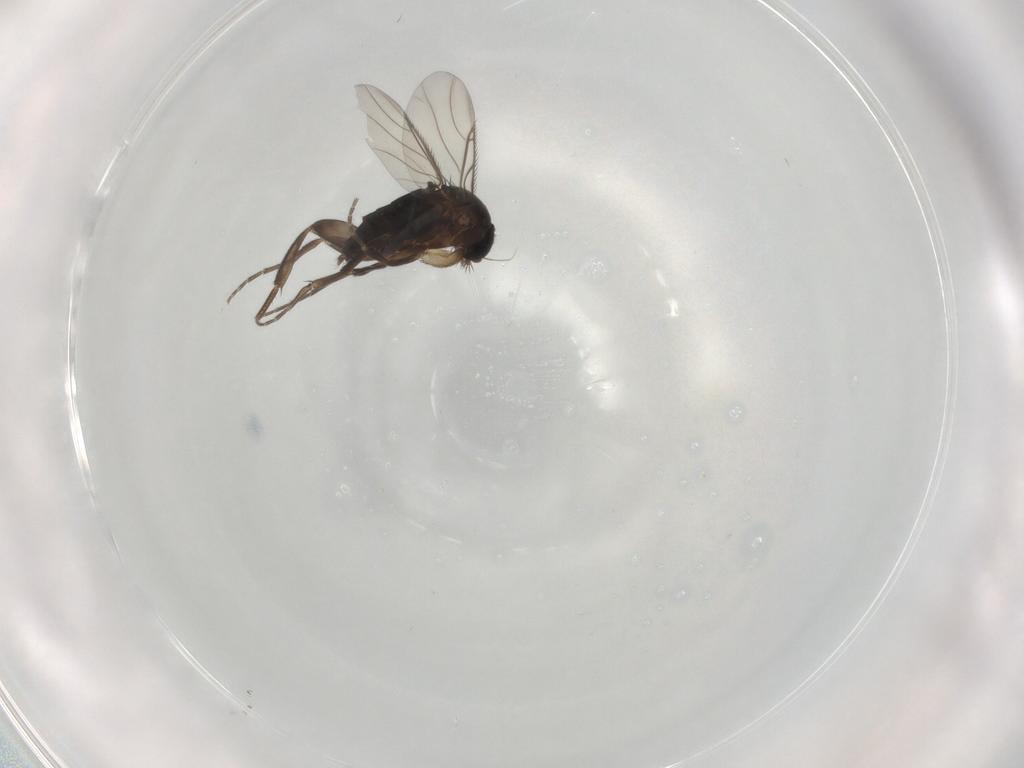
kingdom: Animalia
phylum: Arthropoda
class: Insecta
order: Diptera
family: Phoridae
